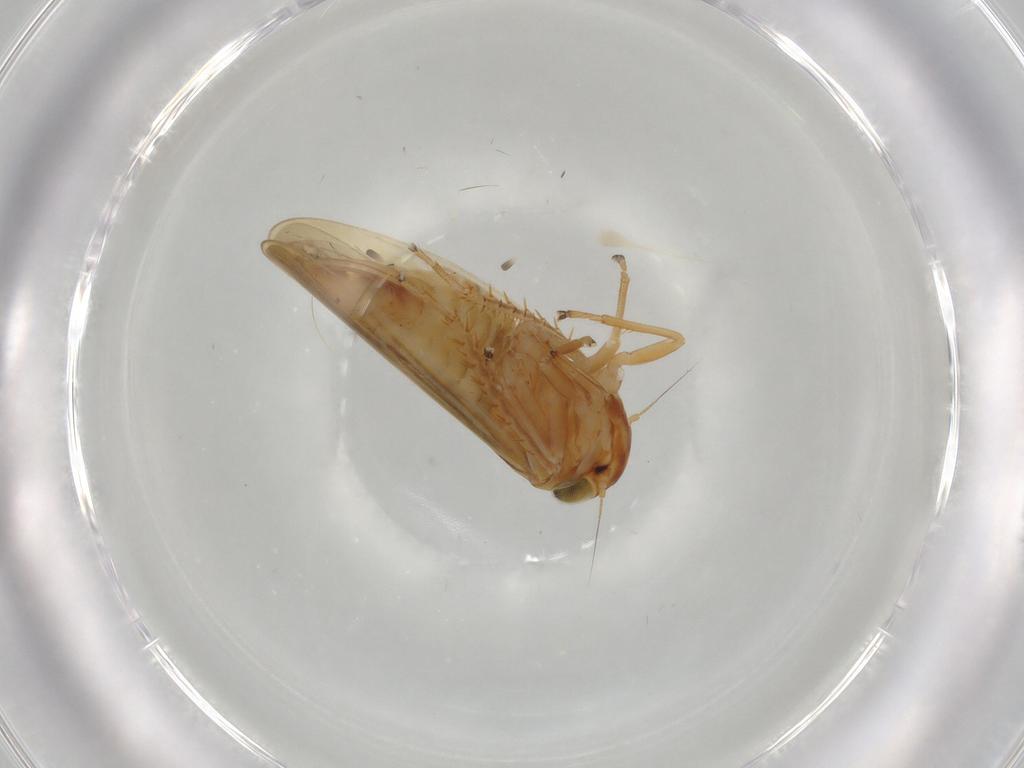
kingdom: Animalia
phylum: Arthropoda
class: Insecta
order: Hemiptera
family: Cicadellidae
